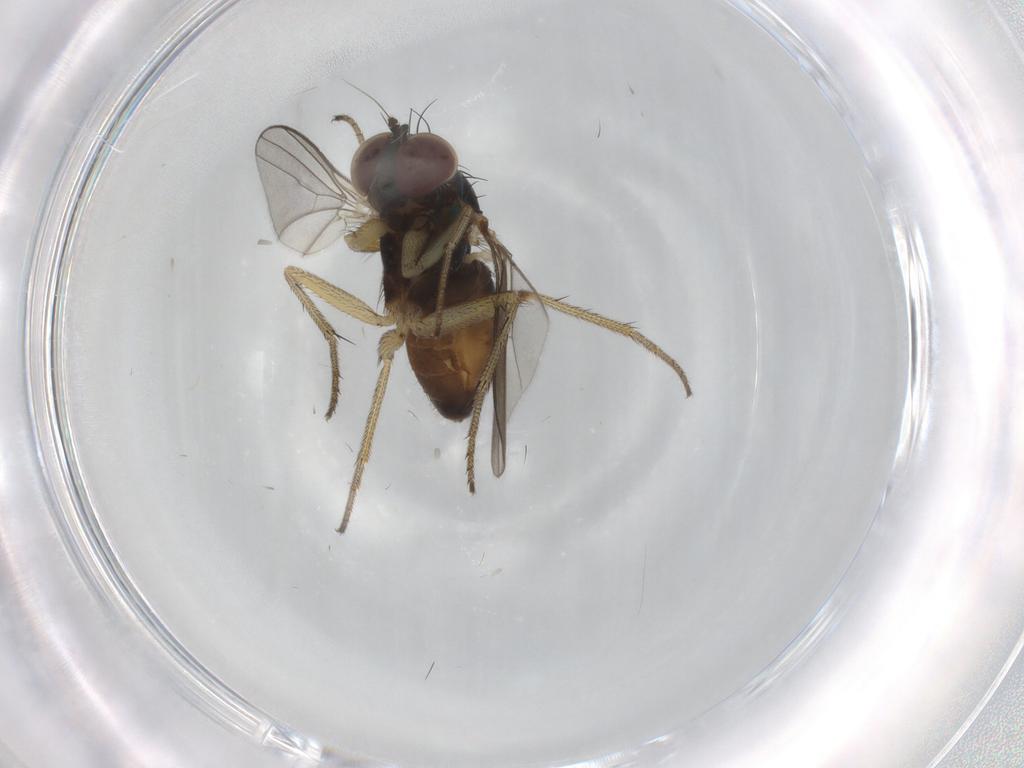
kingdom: Animalia
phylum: Arthropoda
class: Insecta
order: Diptera
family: Dolichopodidae
